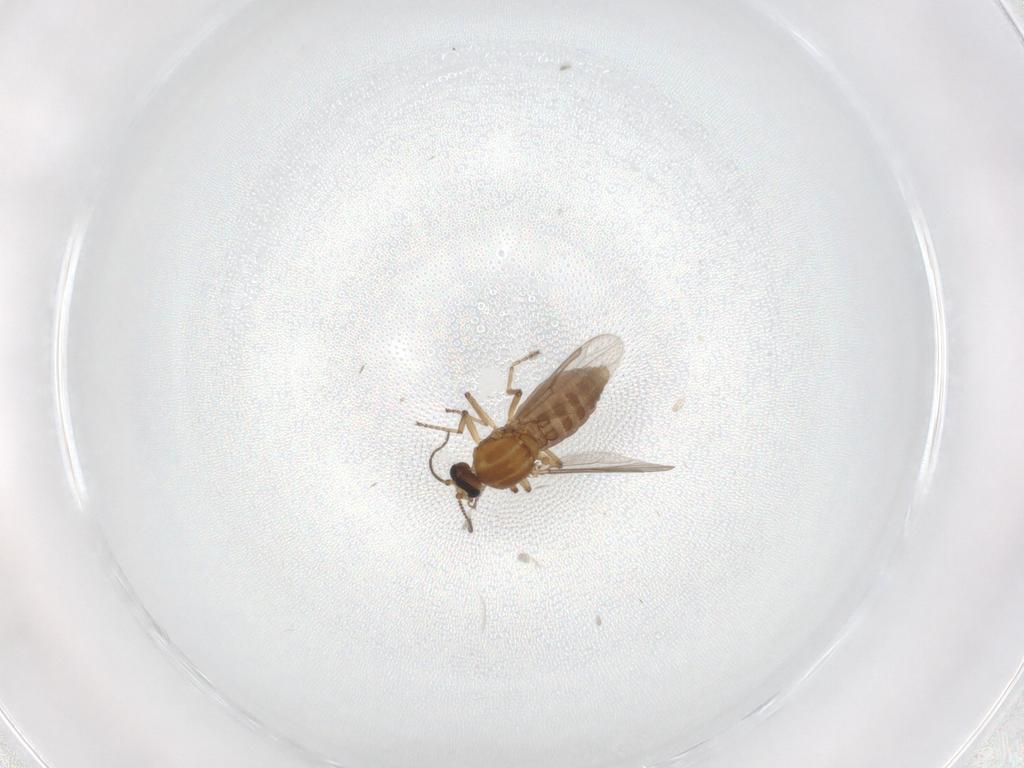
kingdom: Animalia
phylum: Arthropoda
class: Insecta
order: Diptera
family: Ceratopogonidae
